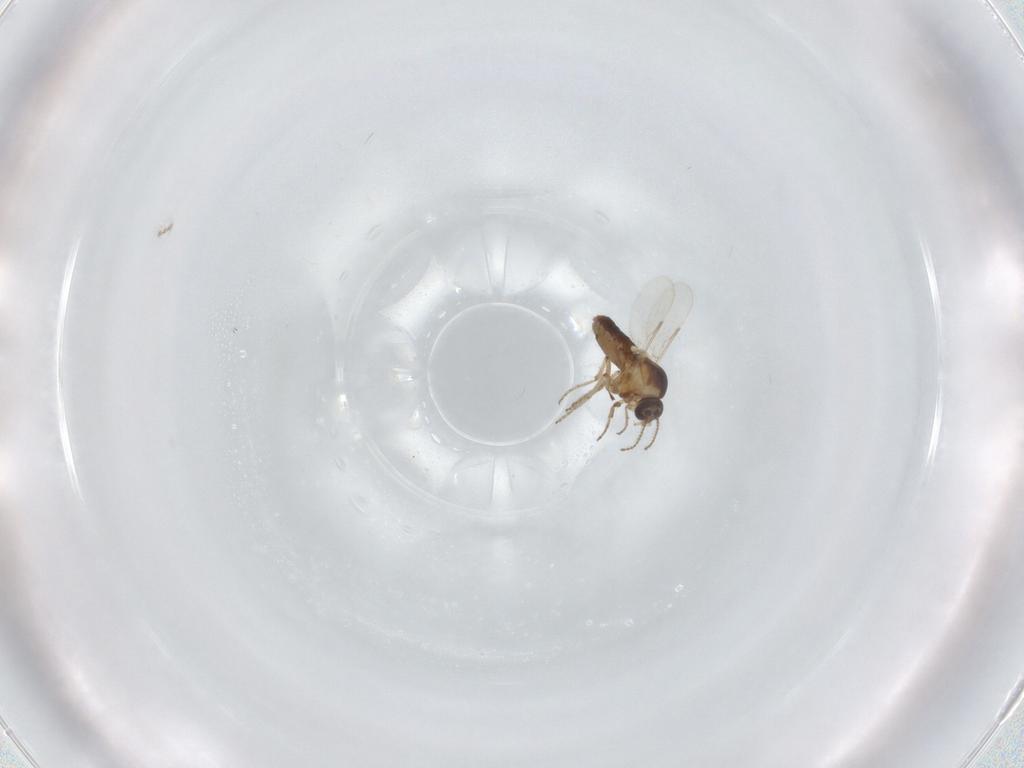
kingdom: Animalia
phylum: Arthropoda
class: Insecta
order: Diptera
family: Ceratopogonidae
